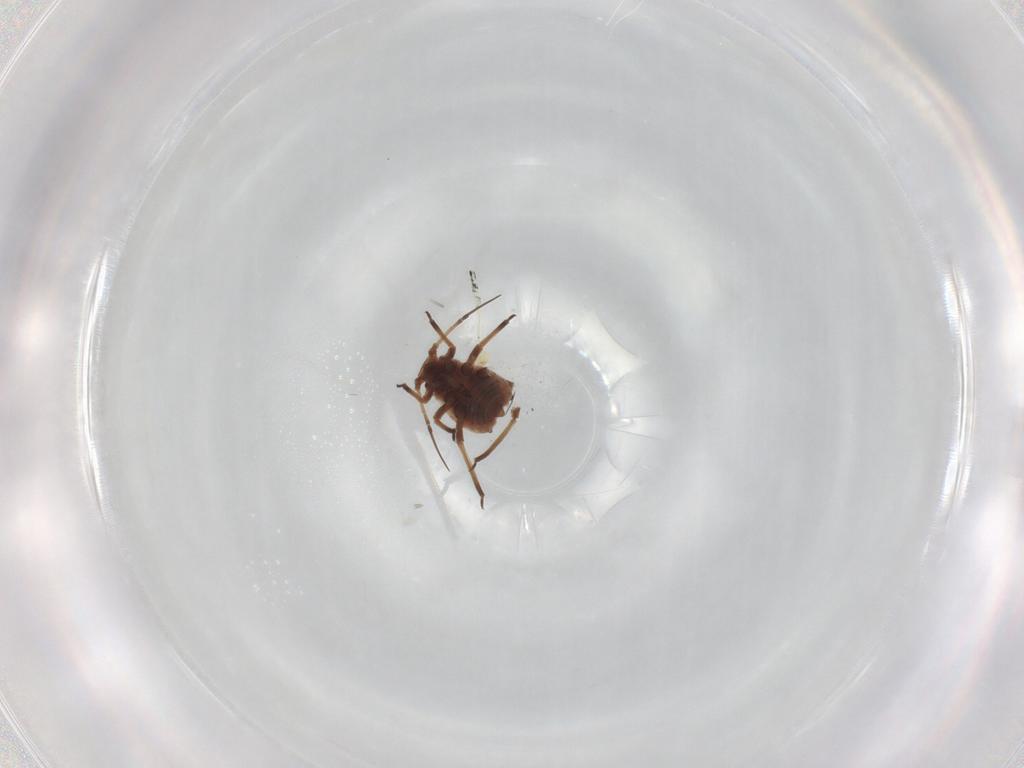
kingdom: Animalia
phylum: Arthropoda
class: Insecta
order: Hemiptera
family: Aphididae
